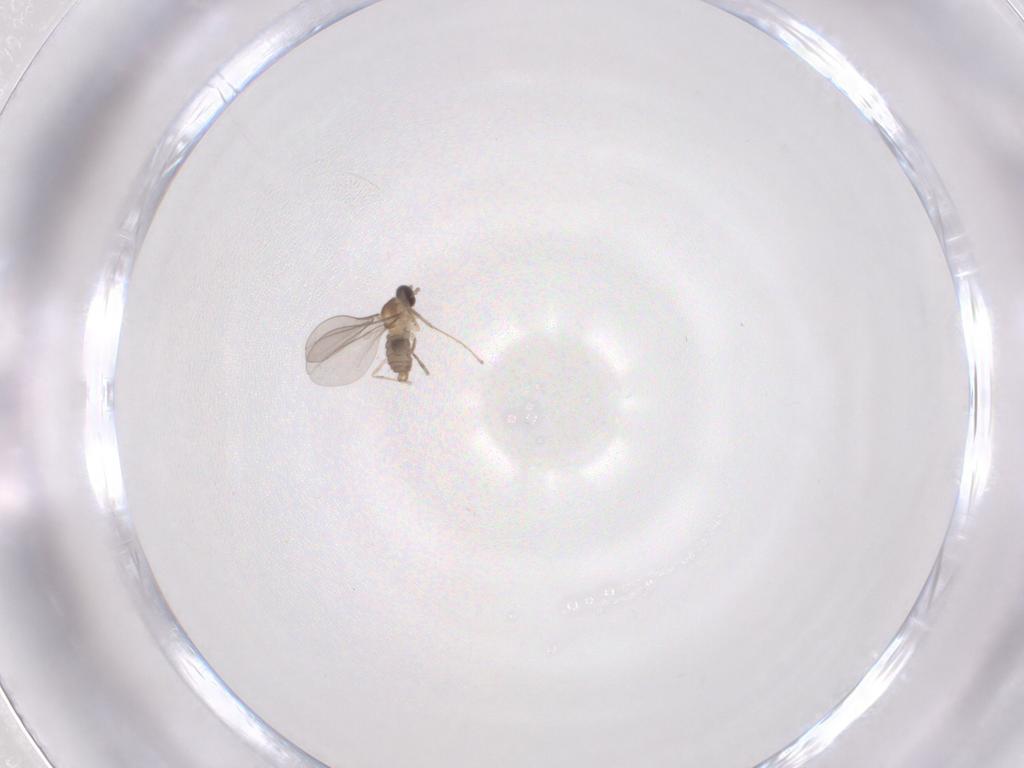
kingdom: Animalia
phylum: Arthropoda
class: Insecta
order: Diptera
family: Cecidomyiidae
